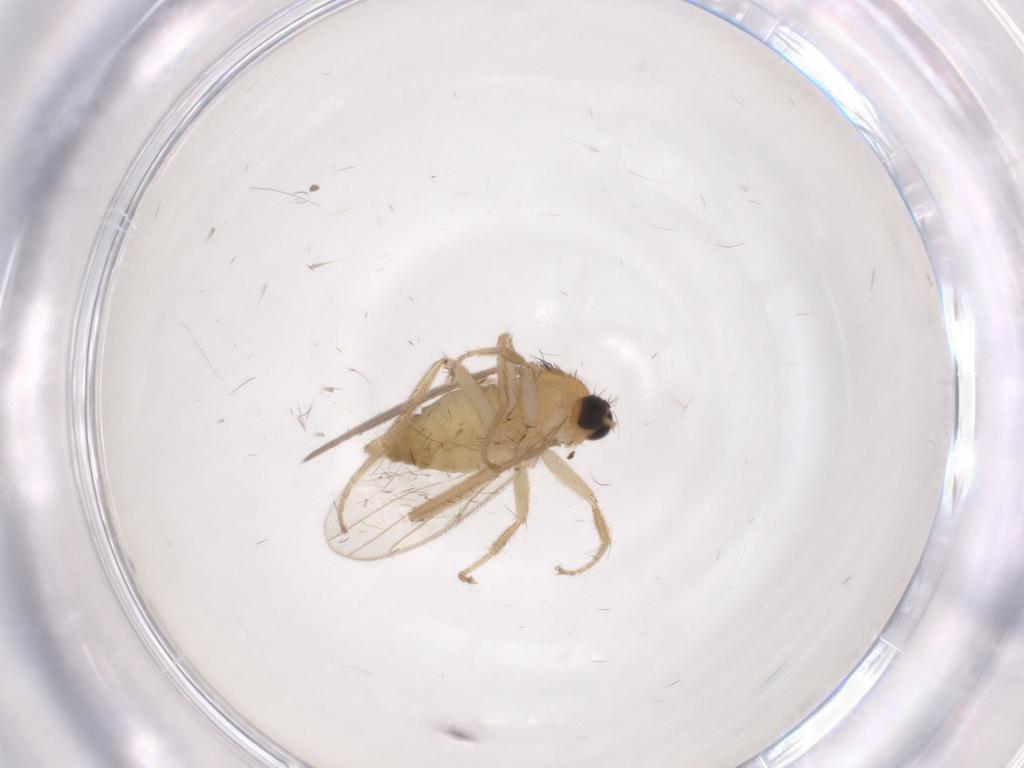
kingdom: Animalia
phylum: Arthropoda
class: Insecta
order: Diptera
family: Hybotidae
